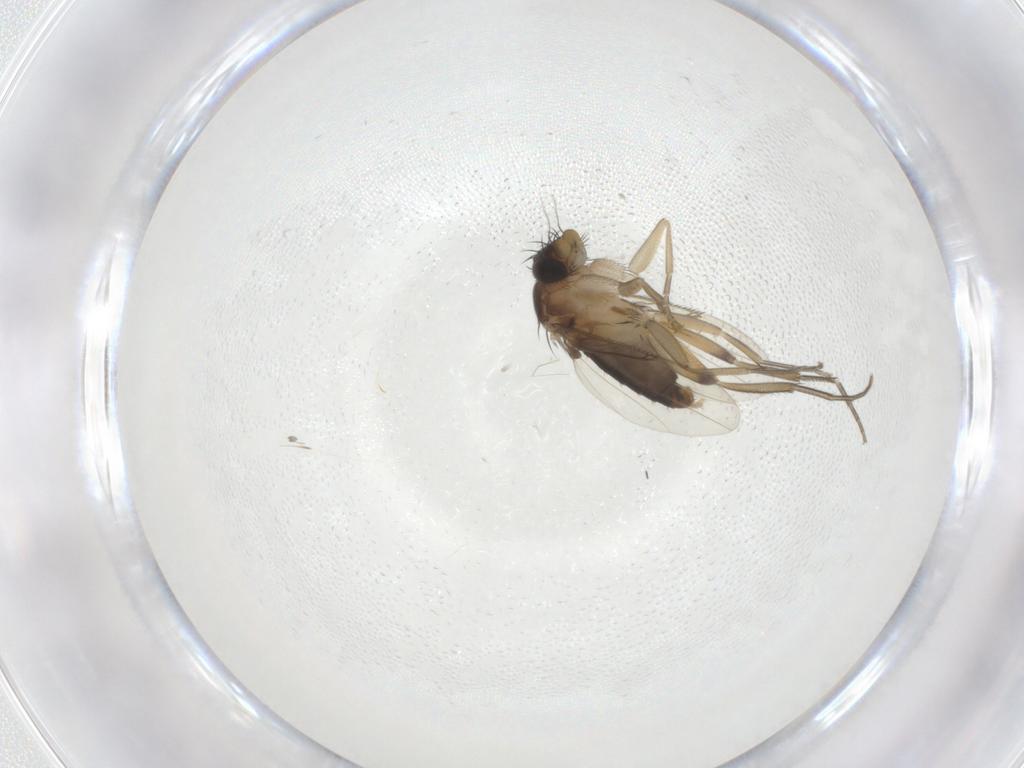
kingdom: Animalia
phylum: Arthropoda
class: Insecta
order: Diptera
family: Phoridae
